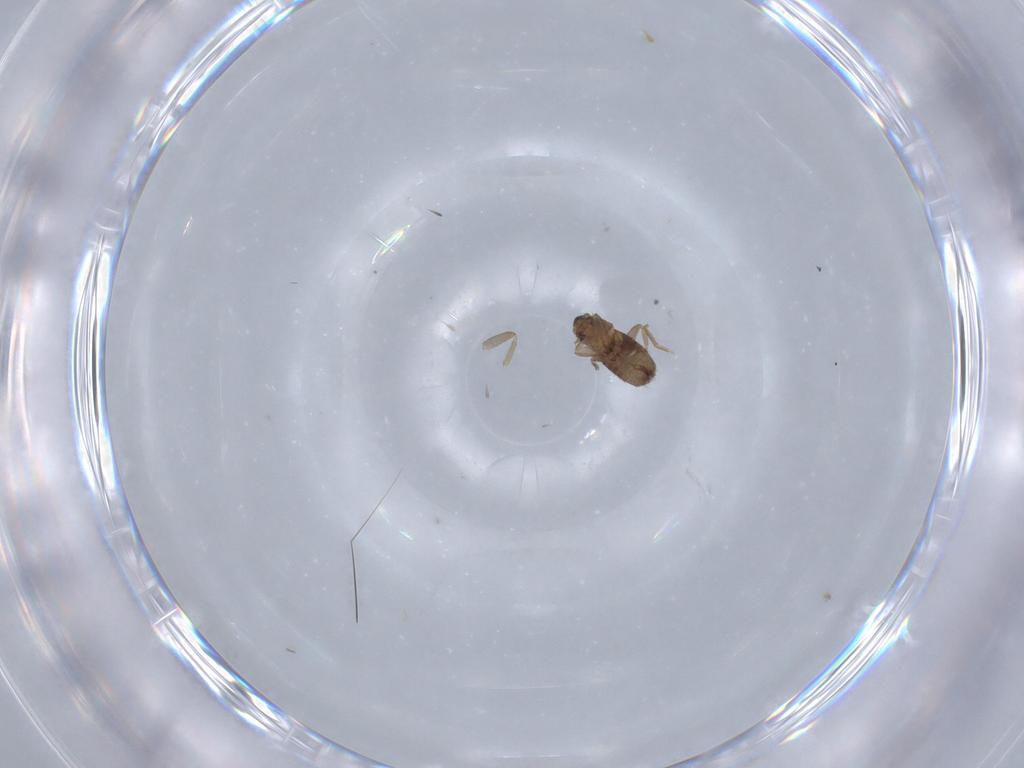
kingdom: Animalia
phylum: Arthropoda
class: Insecta
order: Diptera
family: Phoridae
